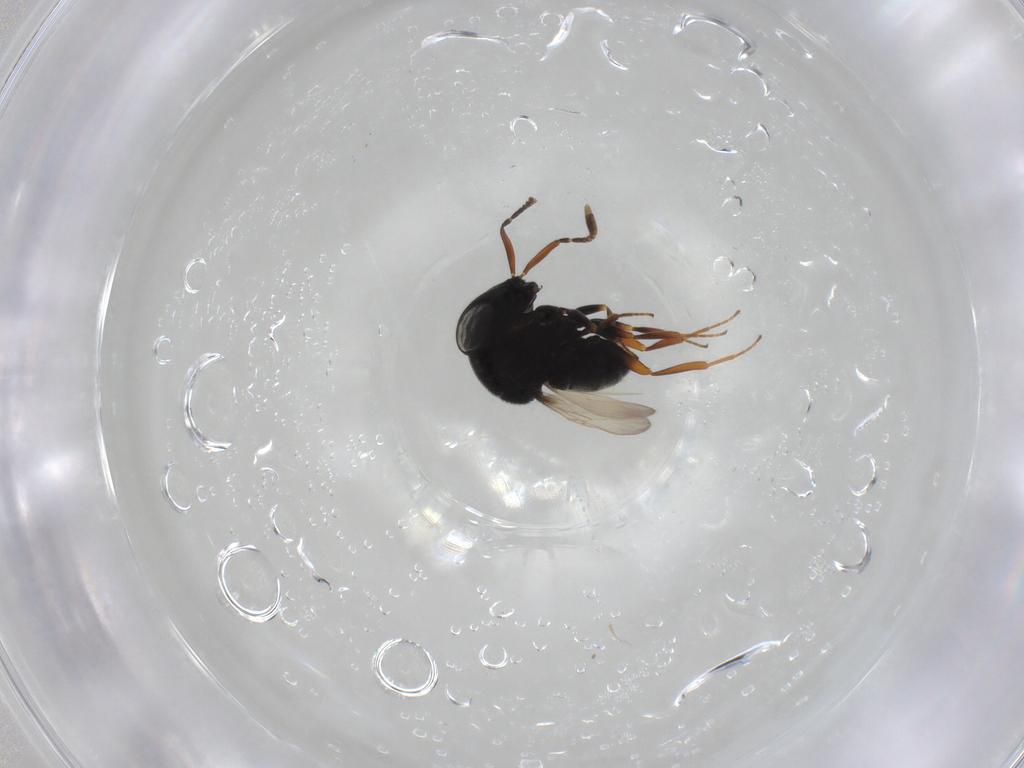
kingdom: Animalia
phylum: Arthropoda
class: Insecta
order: Hymenoptera
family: Scelionidae
